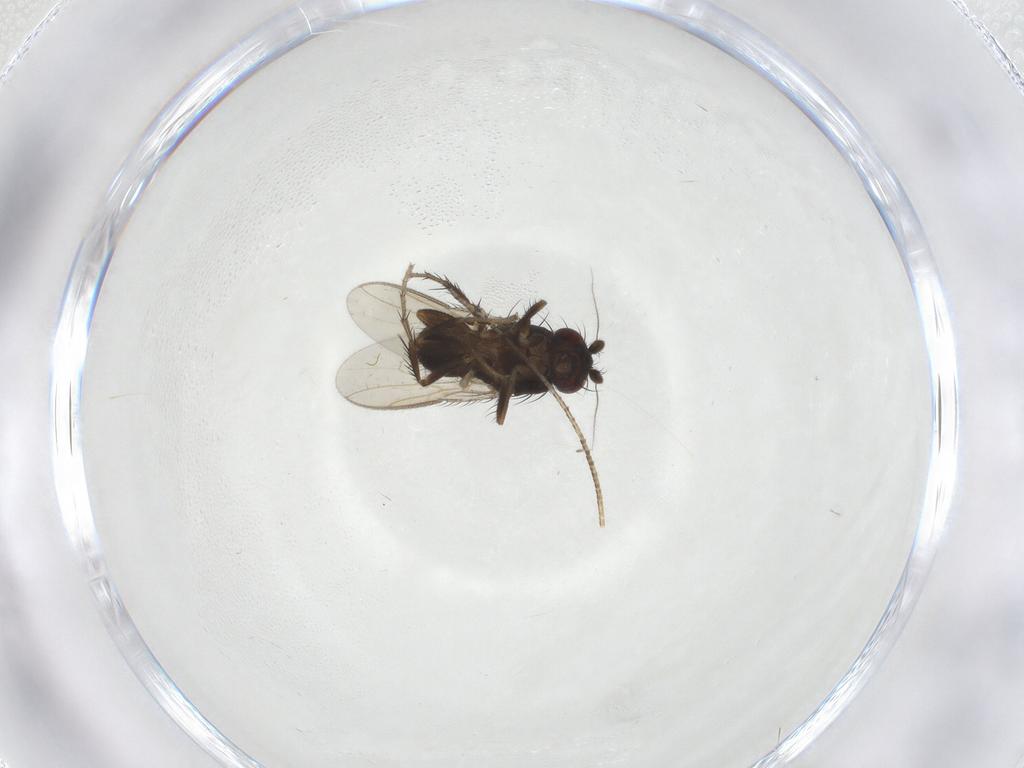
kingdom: Animalia
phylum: Arthropoda
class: Insecta
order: Diptera
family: Sphaeroceridae
